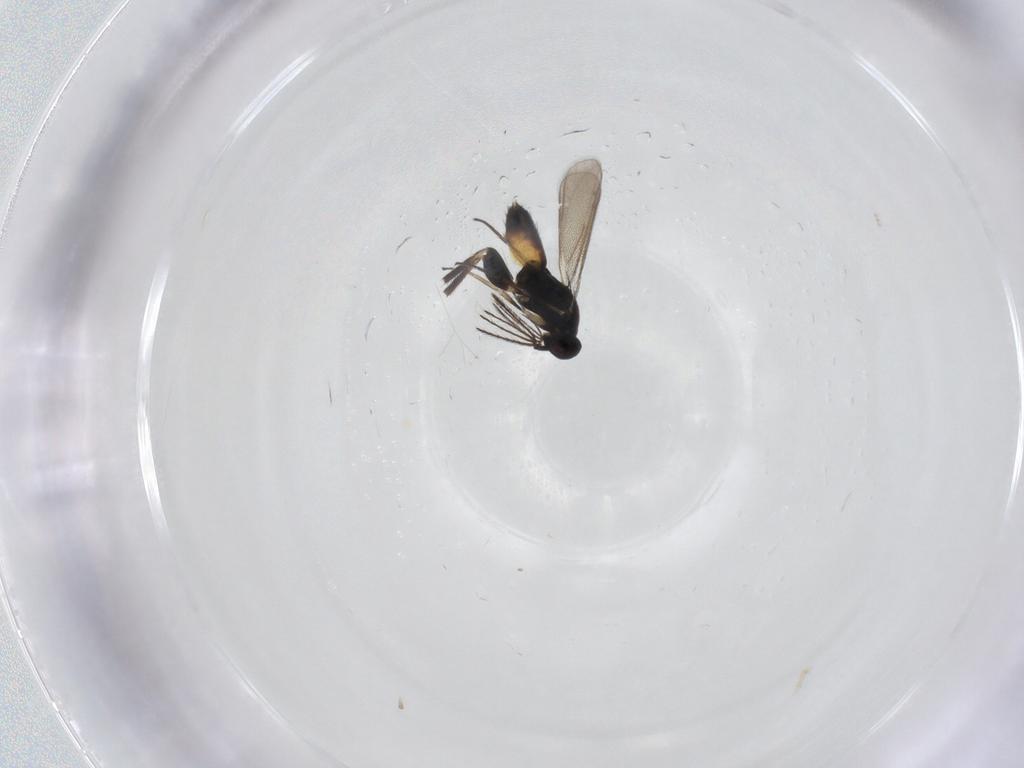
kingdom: Animalia
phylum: Arthropoda
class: Insecta
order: Hymenoptera
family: Eulophidae
